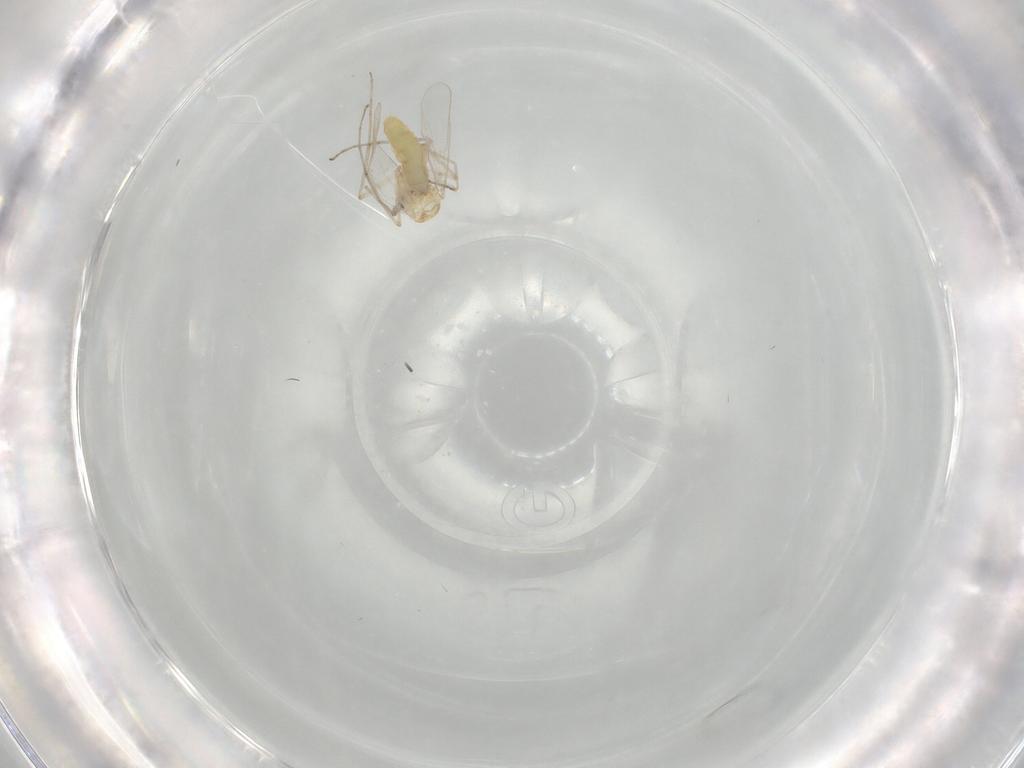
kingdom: Animalia
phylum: Arthropoda
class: Insecta
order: Diptera
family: Chironomidae
